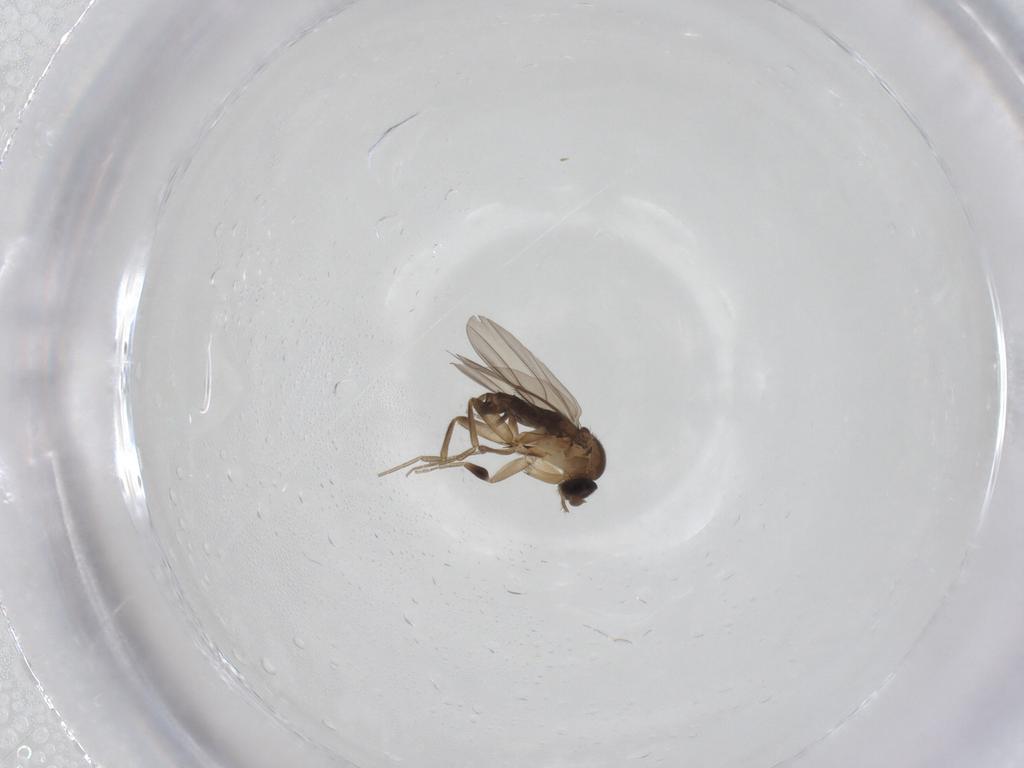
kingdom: Animalia
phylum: Arthropoda
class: Insecta
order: Diptera
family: Phoridae
